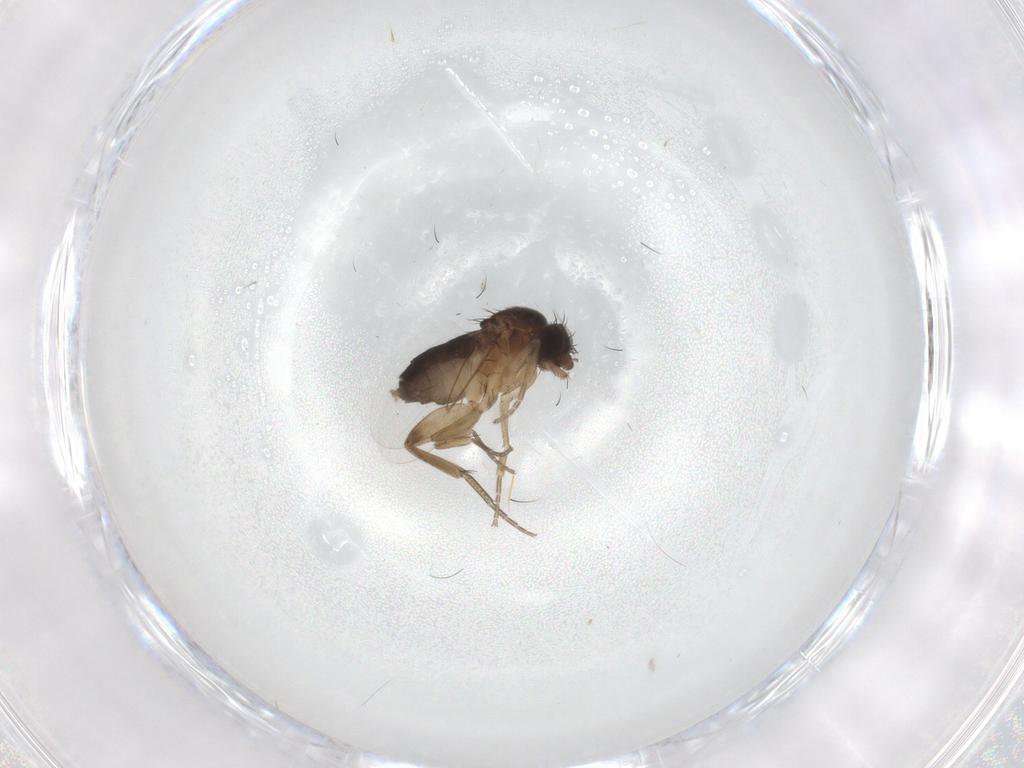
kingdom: Animalia
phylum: Arthropoda
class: Insecta
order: Diptera
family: Phoridae
